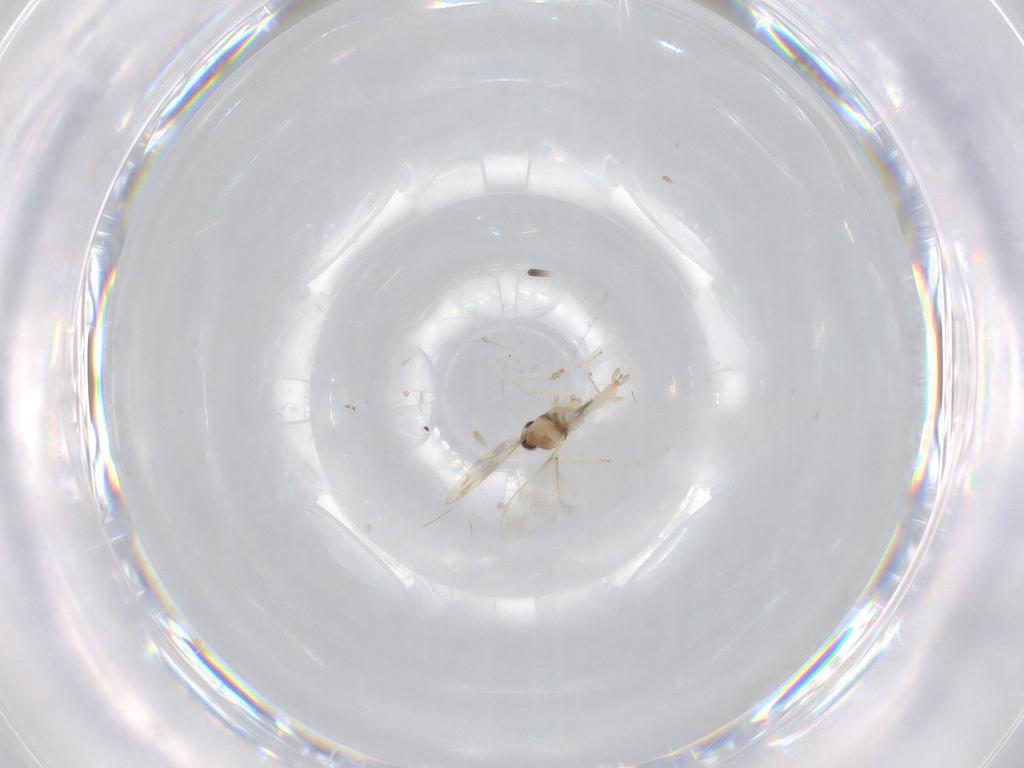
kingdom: Animalia
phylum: Arthropoda
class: Insecta
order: Diptera
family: Cecidomyiidae
